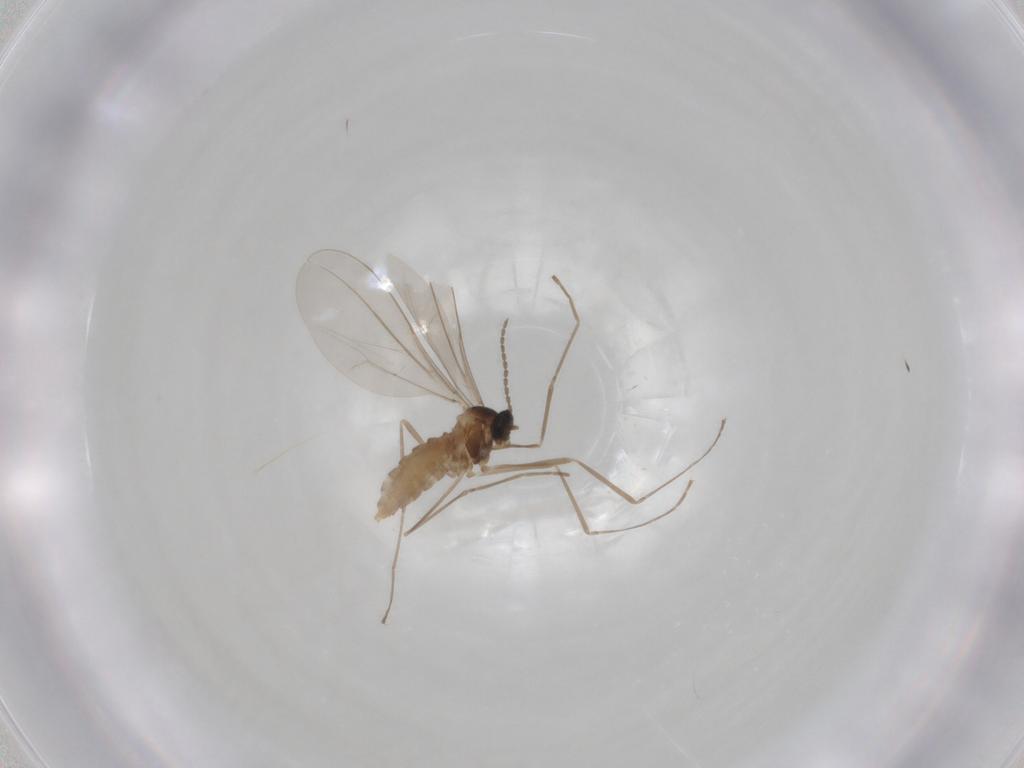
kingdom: Animalia
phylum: Arthropoda
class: Insecta
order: Diptera
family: Cecidomyiidae
